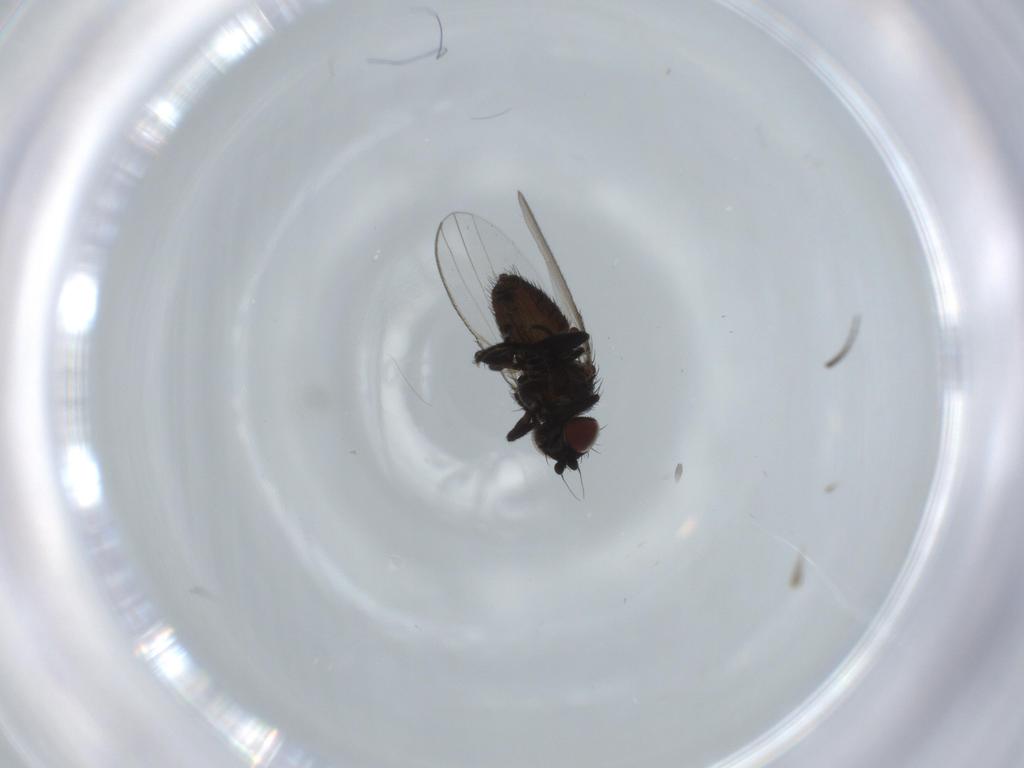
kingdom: Animalia
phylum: Arthropoda
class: Insecta
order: Diptera
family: Milichiidae
